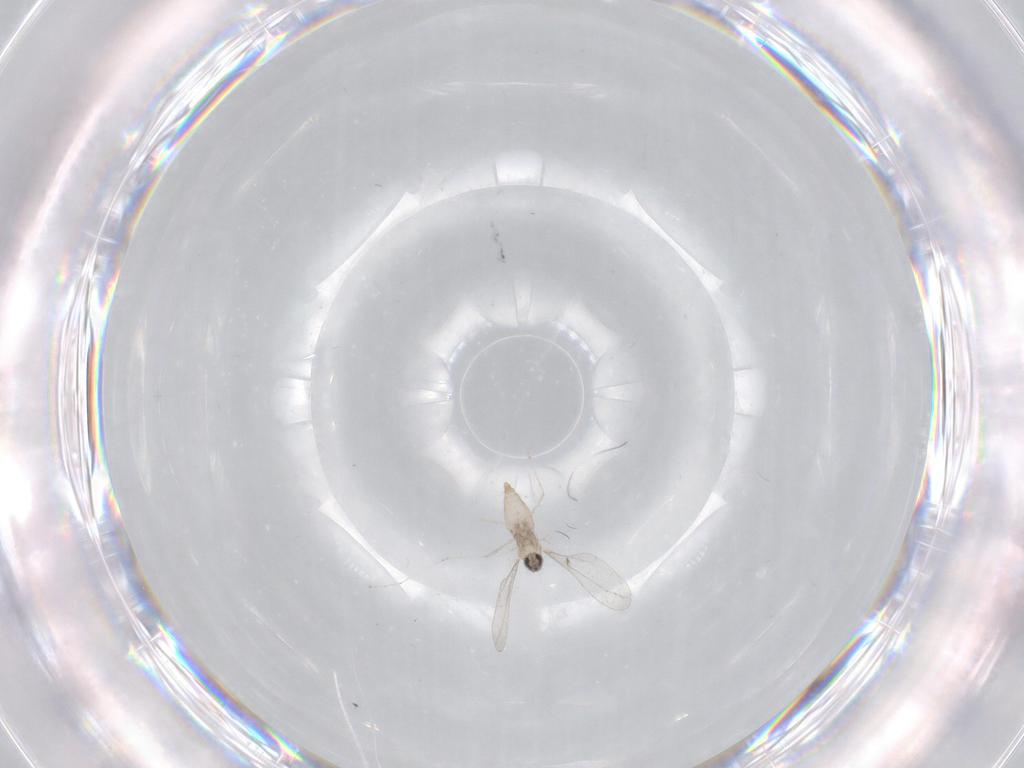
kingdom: Animalia
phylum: Arthropoda
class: Insecta
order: Diptera
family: Cecidomyiidae
